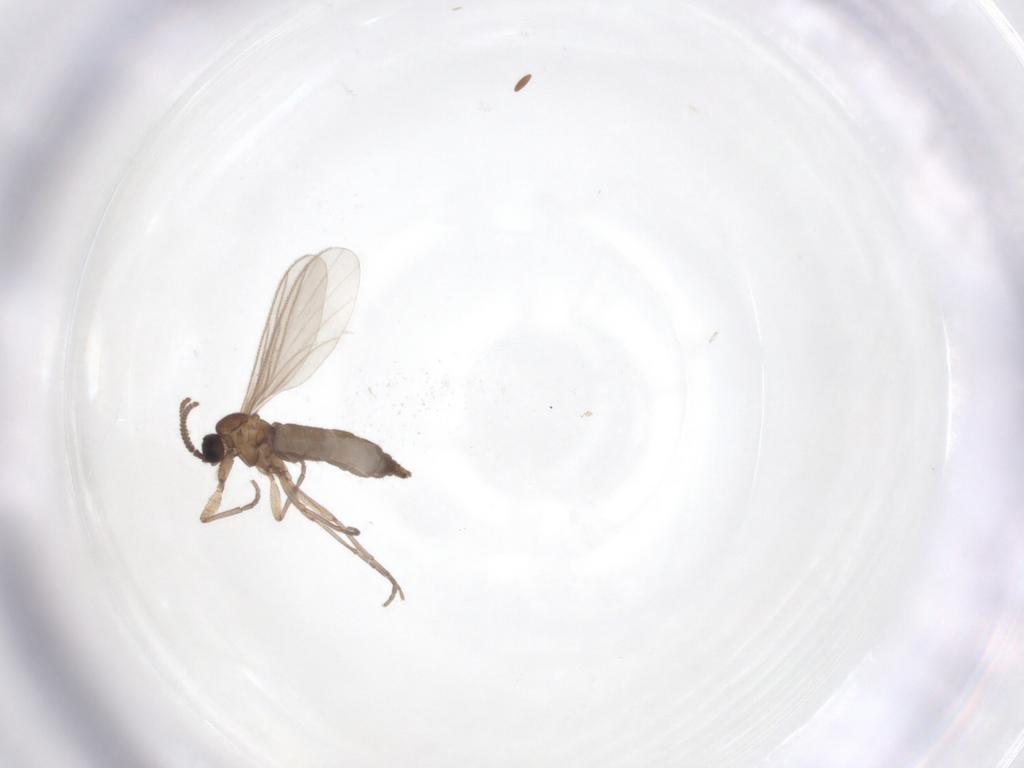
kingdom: Animalia
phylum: Arthropoda
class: Insecta
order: Diptera
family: Sciaridae
